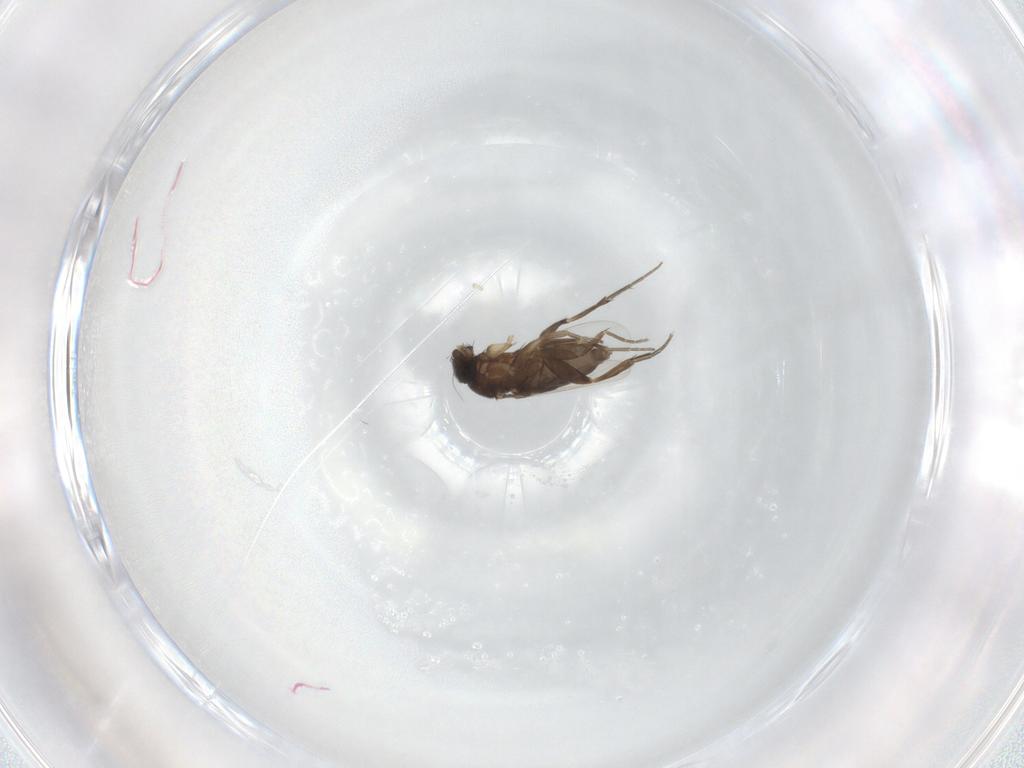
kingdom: Animalia
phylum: Arthropoda
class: Insecta
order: Diptera
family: Phoridae
